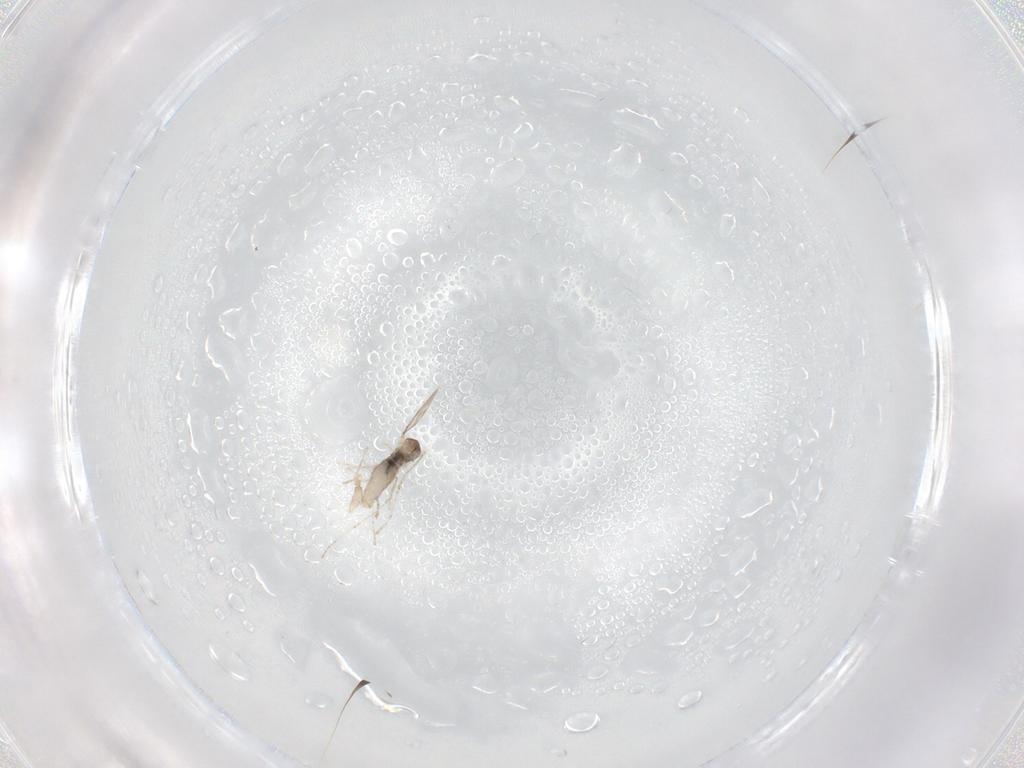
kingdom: Animalia
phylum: Arthropoda
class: Insecta
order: Diptera
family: Cecidomyiidae
